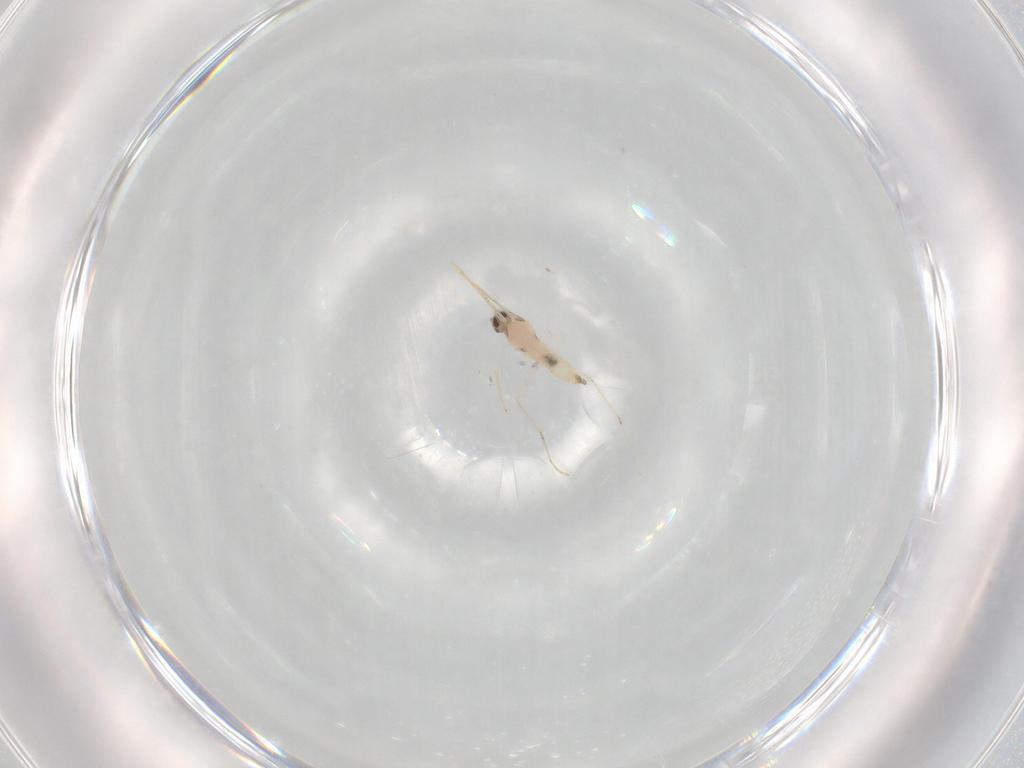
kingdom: Animalia
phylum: Arthropoda
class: Insecta
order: Diptera
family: Cecidomyiidae
